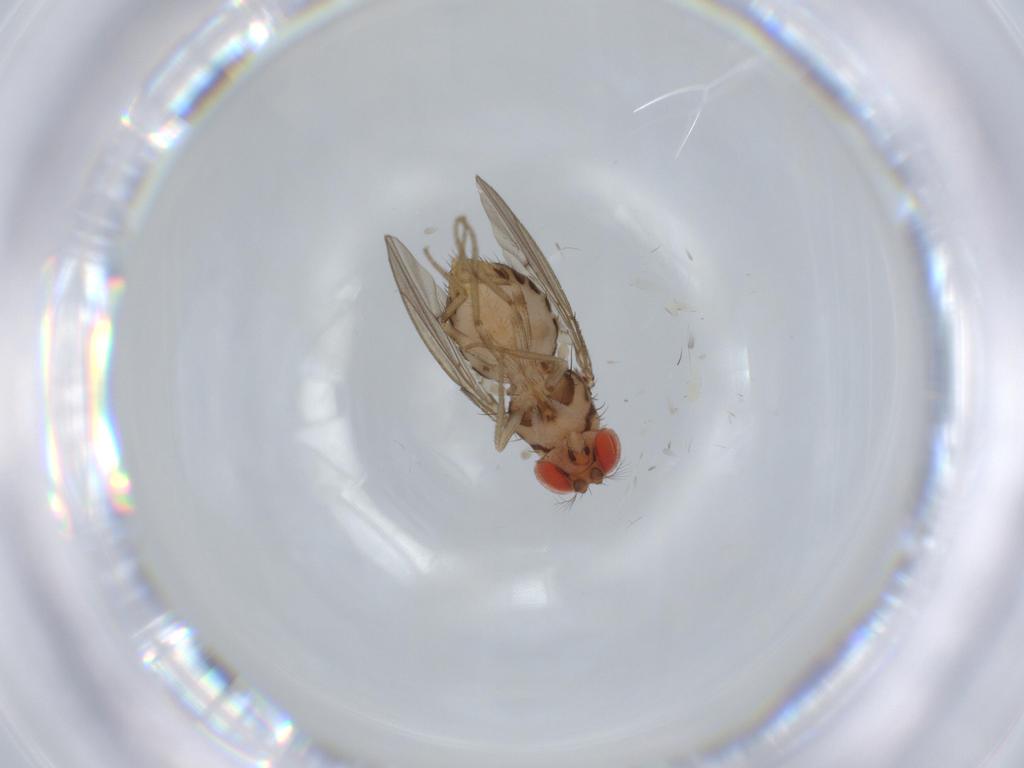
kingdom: Animalia
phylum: Arthropoda
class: Insecta
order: Diptera
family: Drosophilidae
